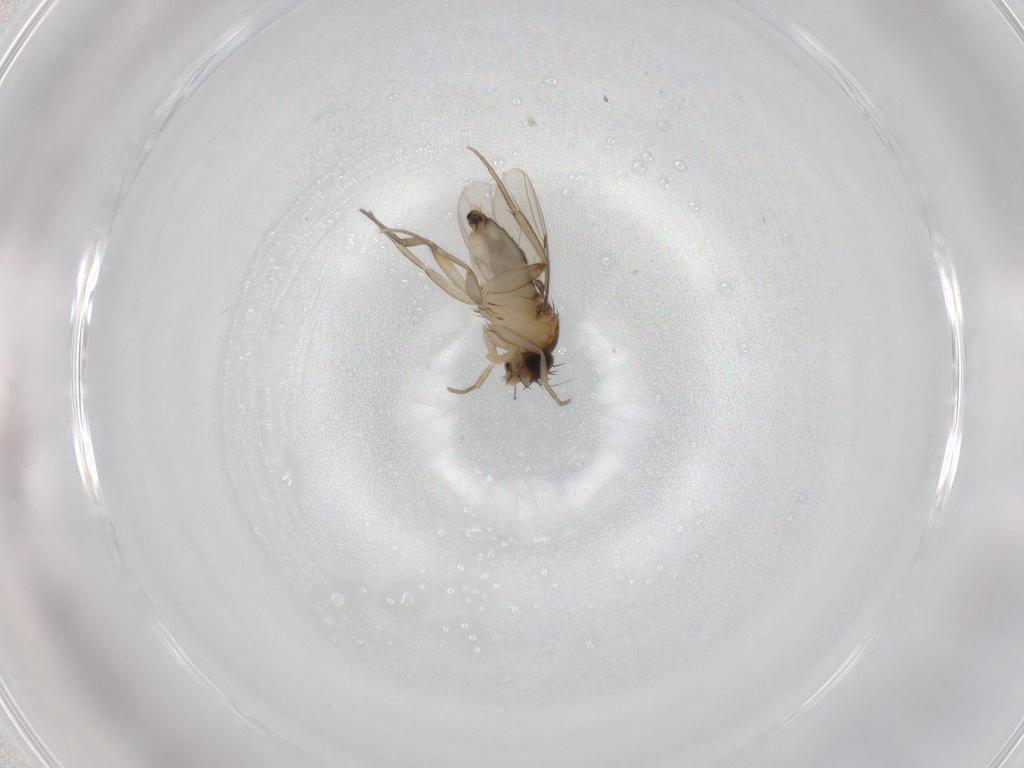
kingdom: Animalia
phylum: Arthropoda
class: Insecta
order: Diptera
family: Phoridae
